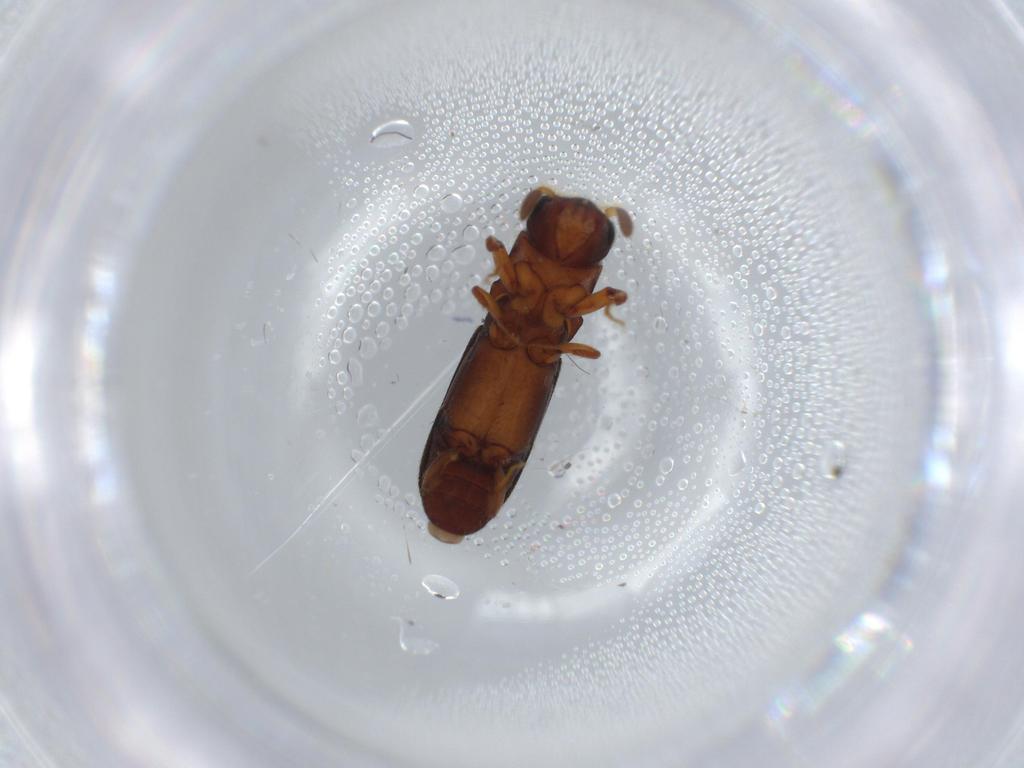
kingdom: Animalia
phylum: Arthropoda
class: Insecta
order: Coleoptera
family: Curculionidae
